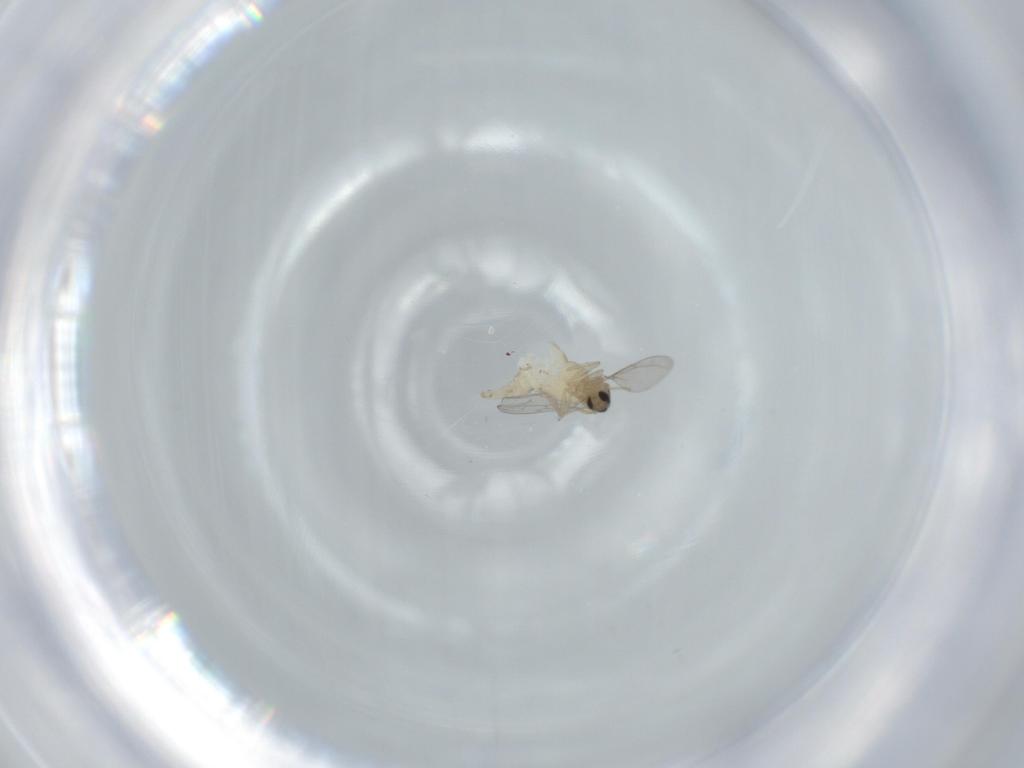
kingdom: Animalia
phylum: Arthropoda
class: Insecta
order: Diptera
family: Cecidomyiidae
